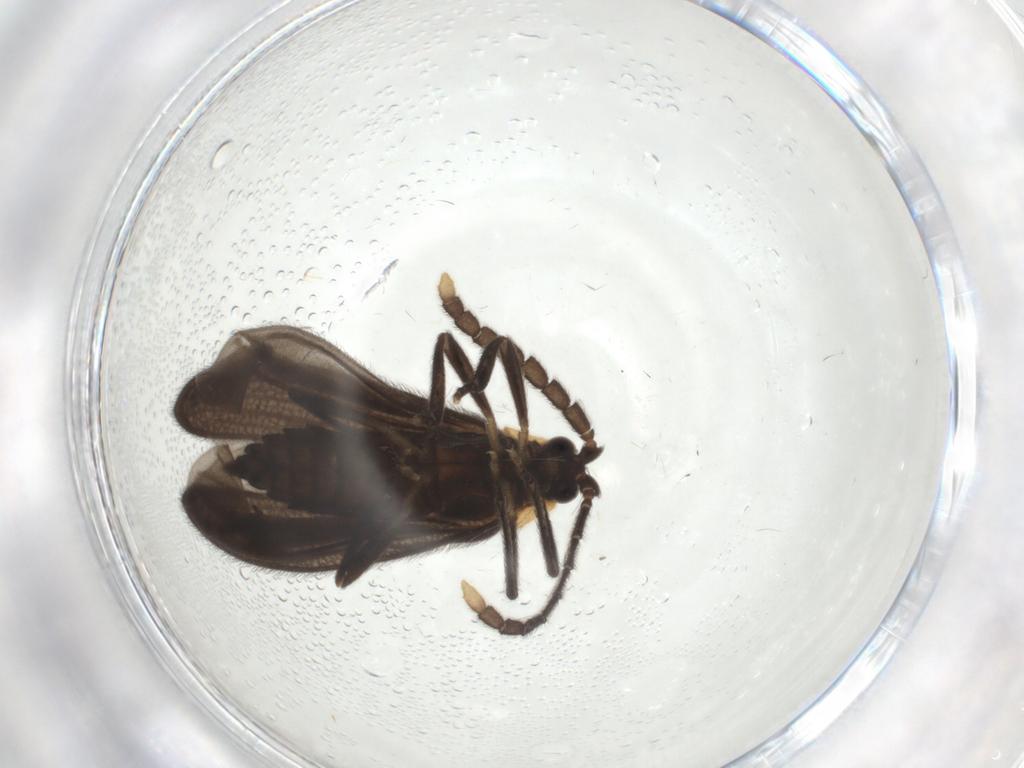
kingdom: Animalia
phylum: Arthropoda
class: Insecta
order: Coleoptera
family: Lycidae
